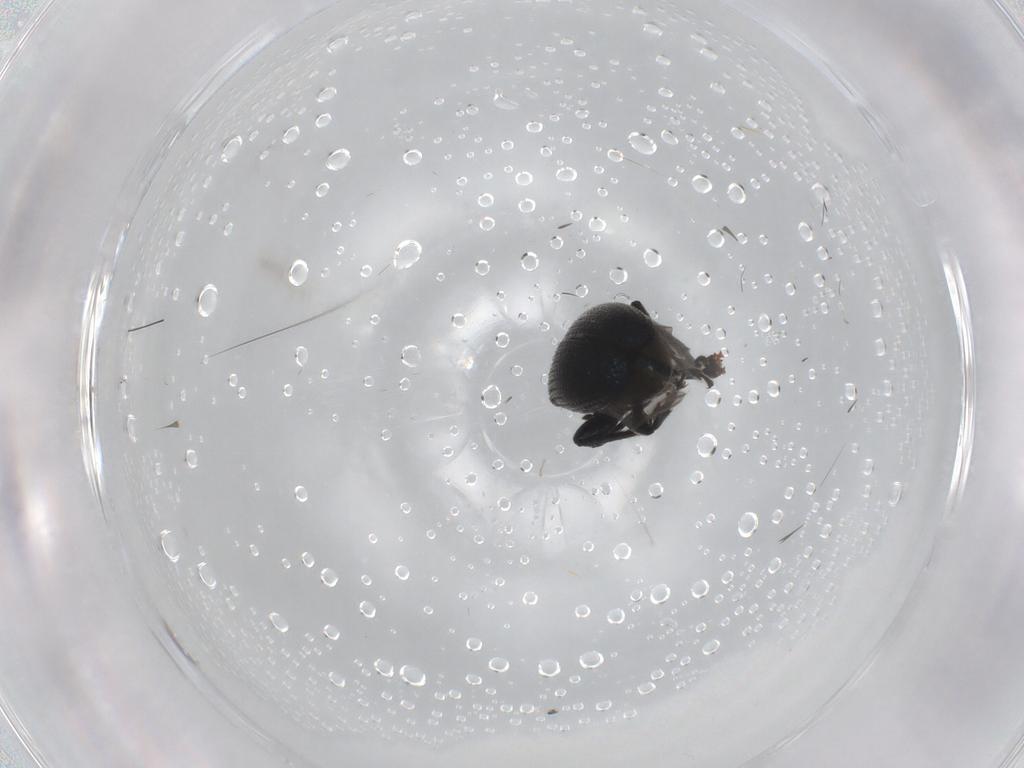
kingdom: Animalia
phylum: Arthropoda
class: Insecta
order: Coleoptera
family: Attelabidae
